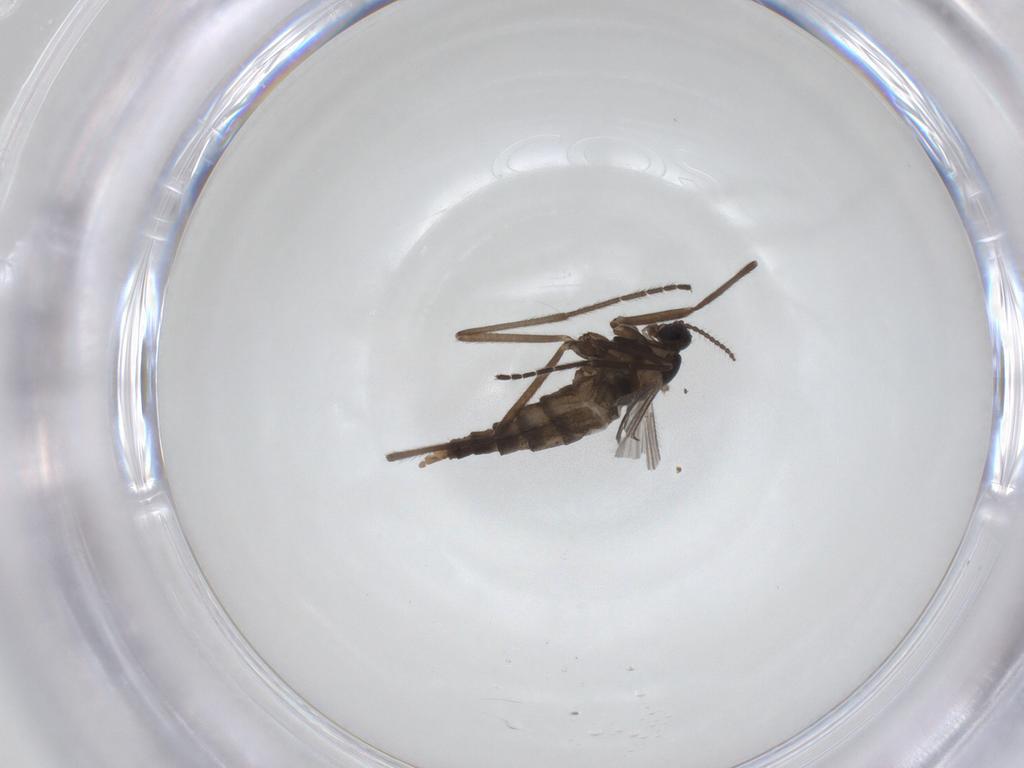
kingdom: Animalia
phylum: Arthropoda
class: Insecta
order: Diptera
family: Cecidomyiidae
